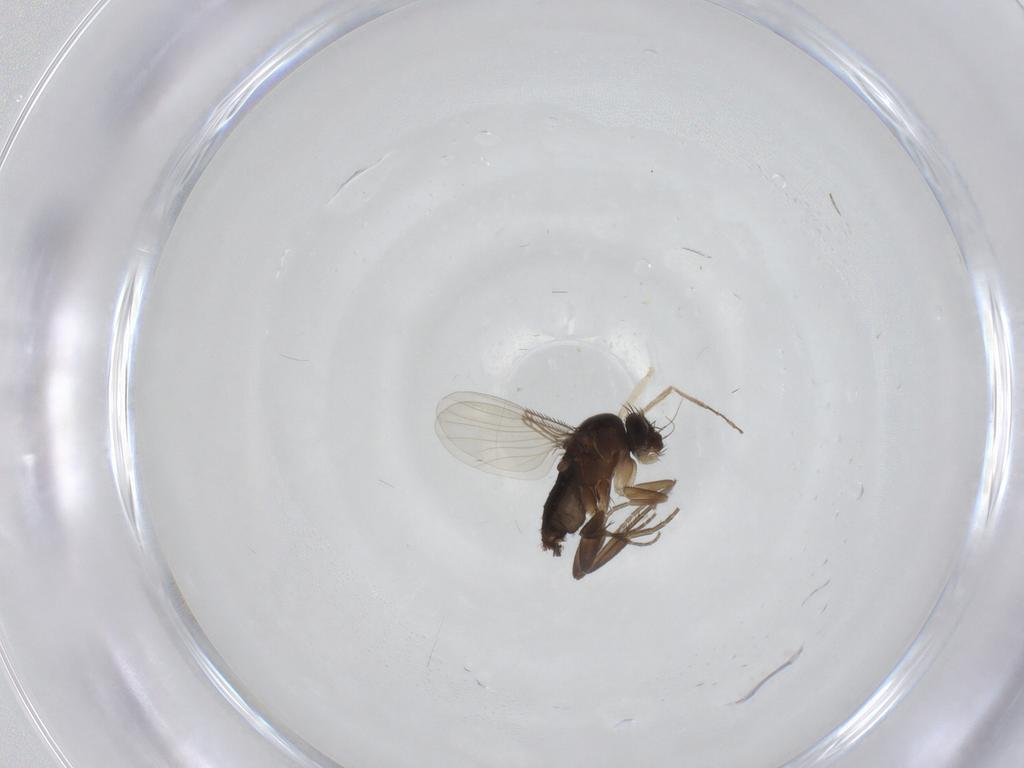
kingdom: Animalia
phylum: Arthropoda
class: Insecta
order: Diptera
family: Phoridae
